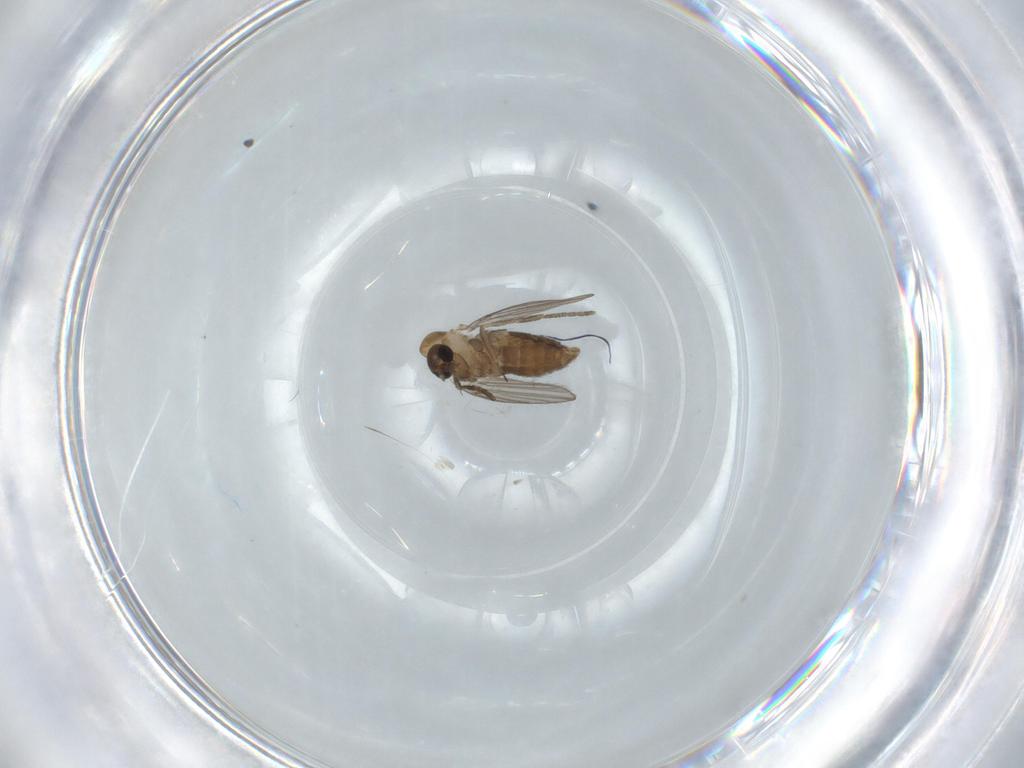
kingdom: Animalia
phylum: Arthropoda
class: Insecta
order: Diptera
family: Psychodidae
